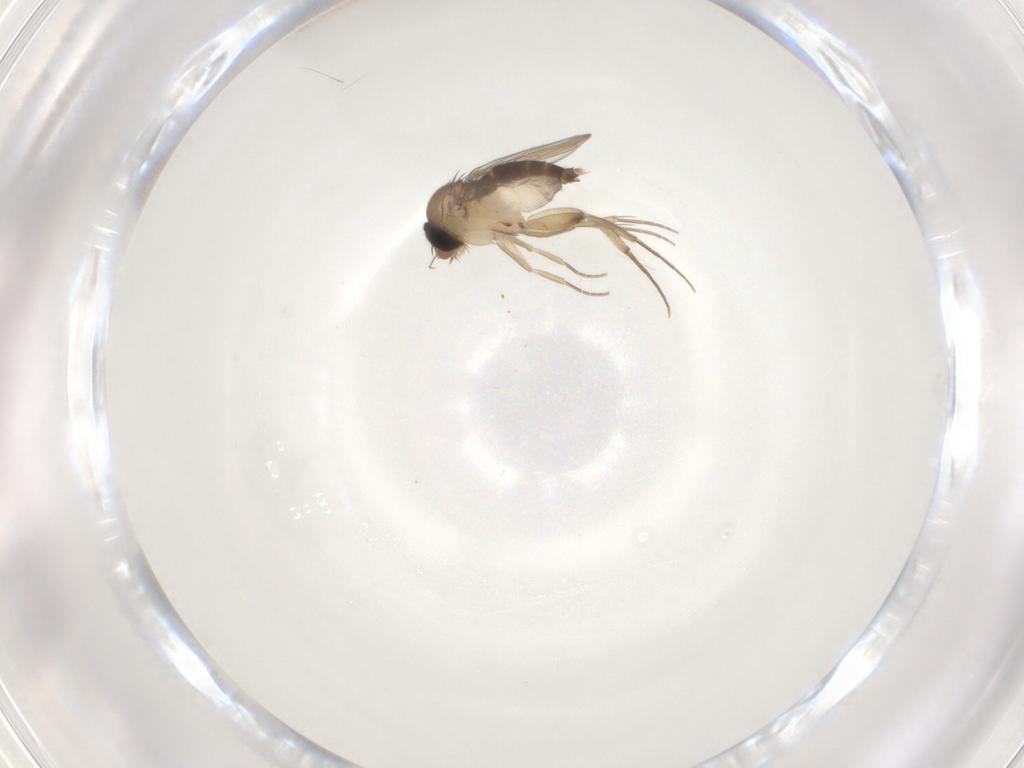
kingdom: Animalia
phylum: Arthropoda
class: Insecta
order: Diptera
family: Phoridae
